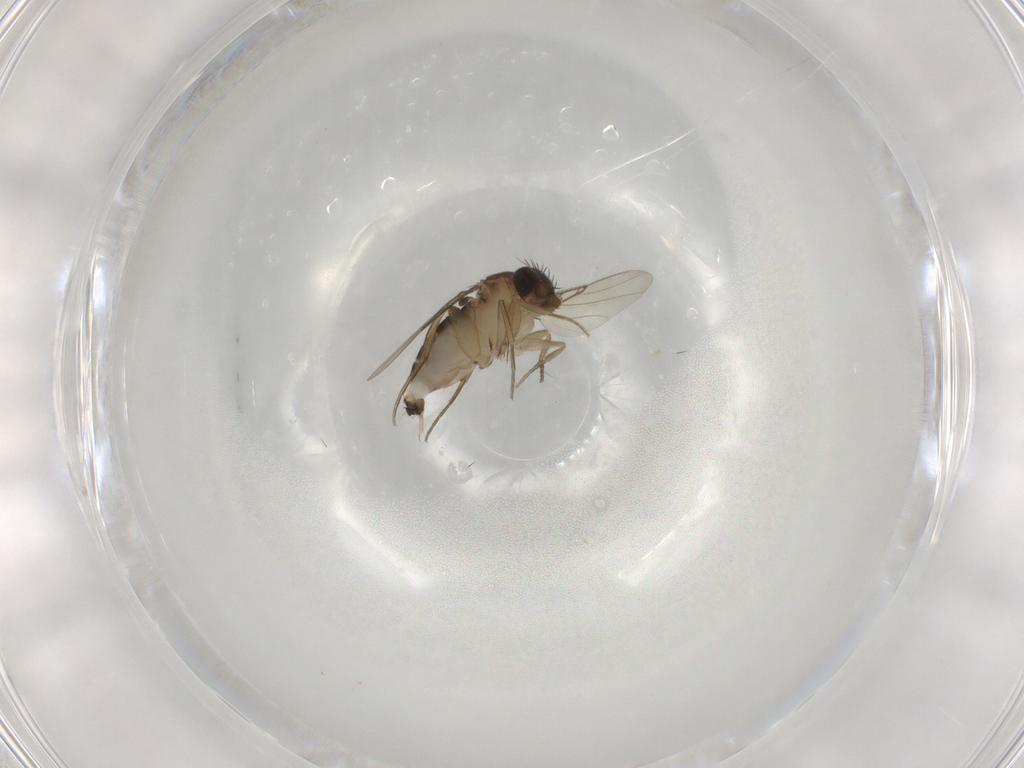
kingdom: Animalia
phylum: Arthropoda
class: Insecta
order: Diptera
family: Phoridae
